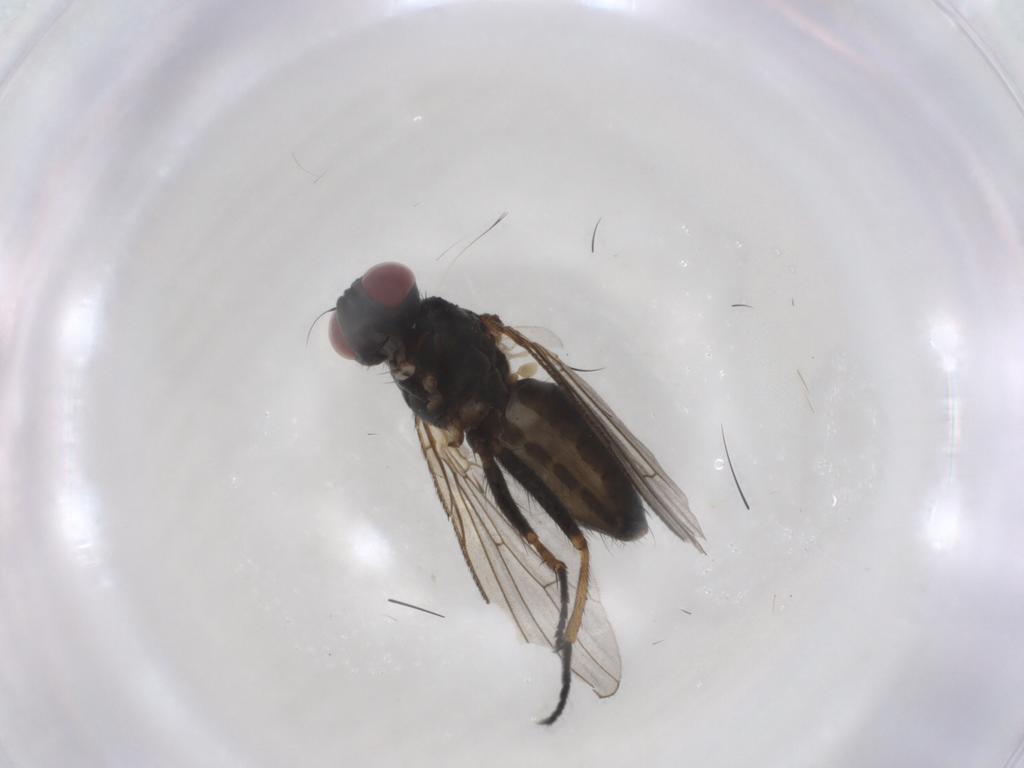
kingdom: Animalia
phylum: Arthropoda
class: Insecta
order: Diptera
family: Muscidae
